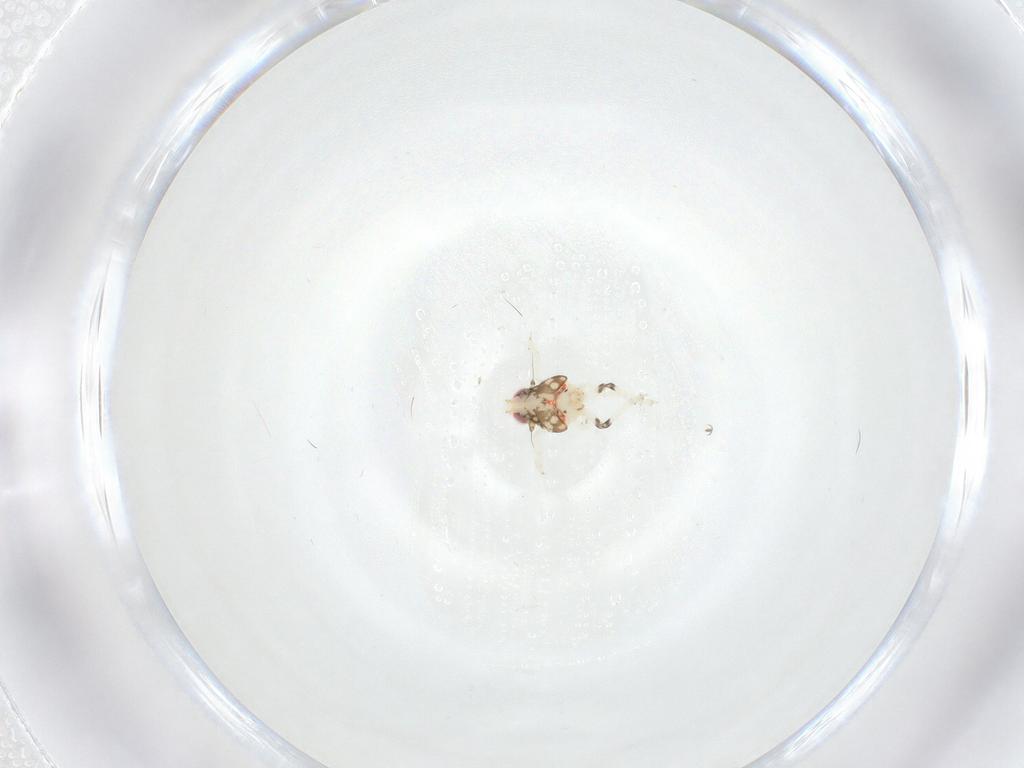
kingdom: Animalia
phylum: Arthropoda
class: Insecta
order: Hemiptera
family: Nogodinidae
